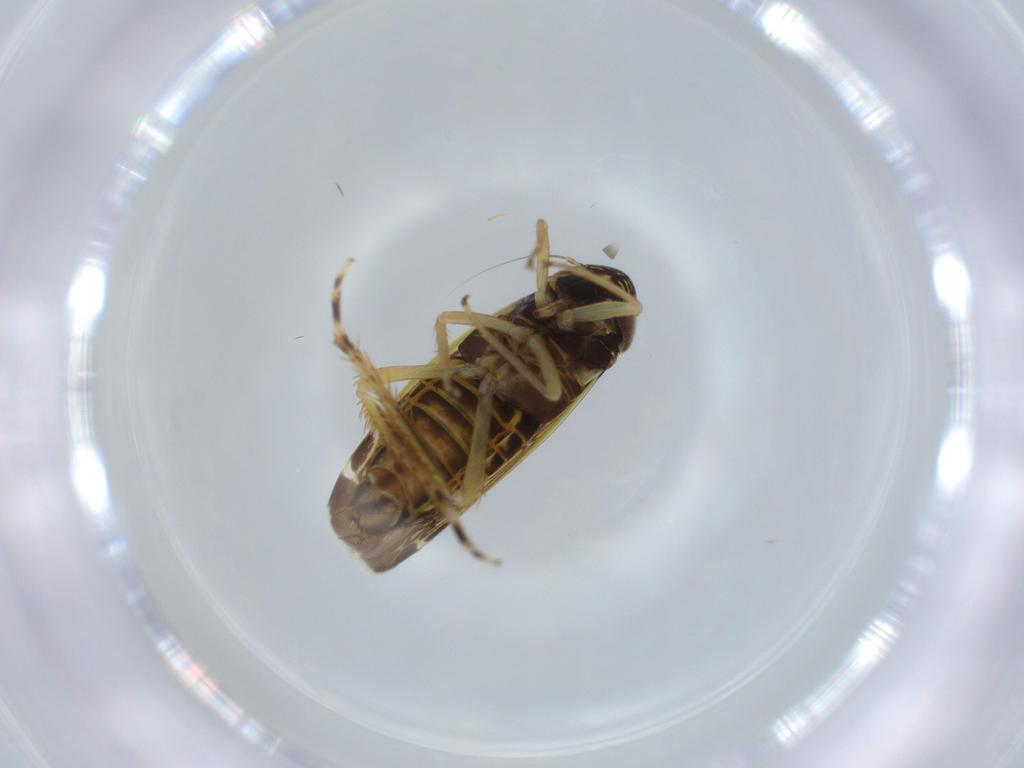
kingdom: Animalia
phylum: Arthropoda
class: Insecta
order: Hemiptera
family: Cicadellidae
